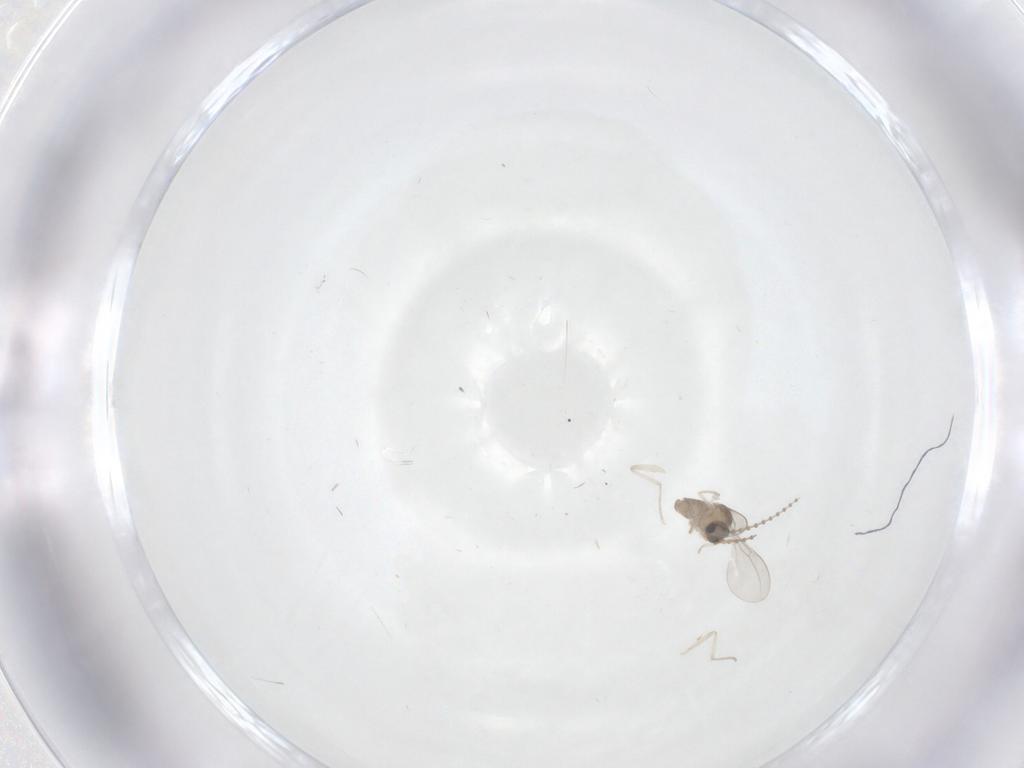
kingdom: Animalia
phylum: Arthropoda
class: Insecta
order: Diptera
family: Cecidomyiidae
